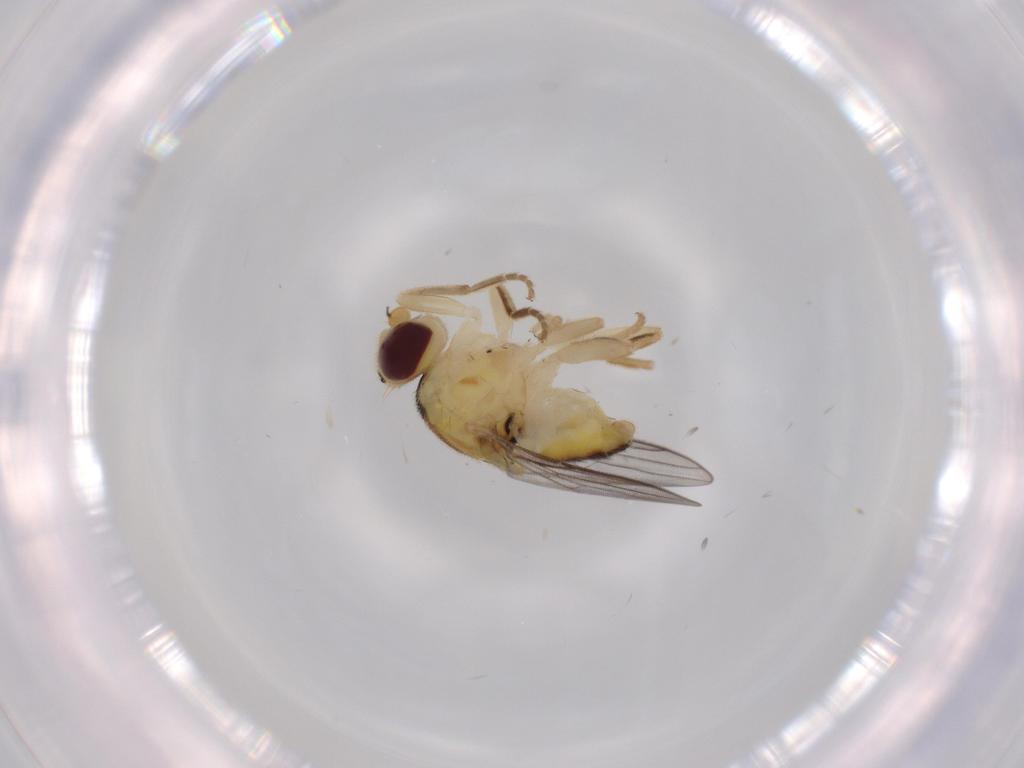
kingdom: Animalia
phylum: Arthropoda
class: Insecta
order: Diptera
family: Chloropidae
